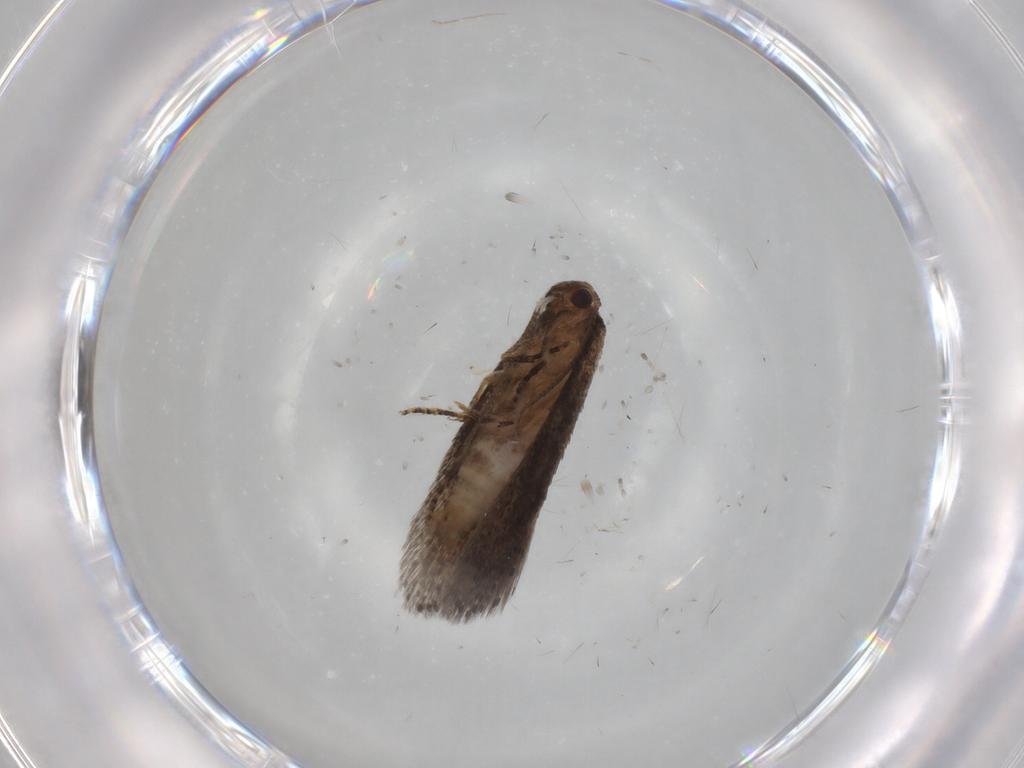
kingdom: Animalia
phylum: Arthropoda
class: Insecta
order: Lepidoptera
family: Elachistidae
